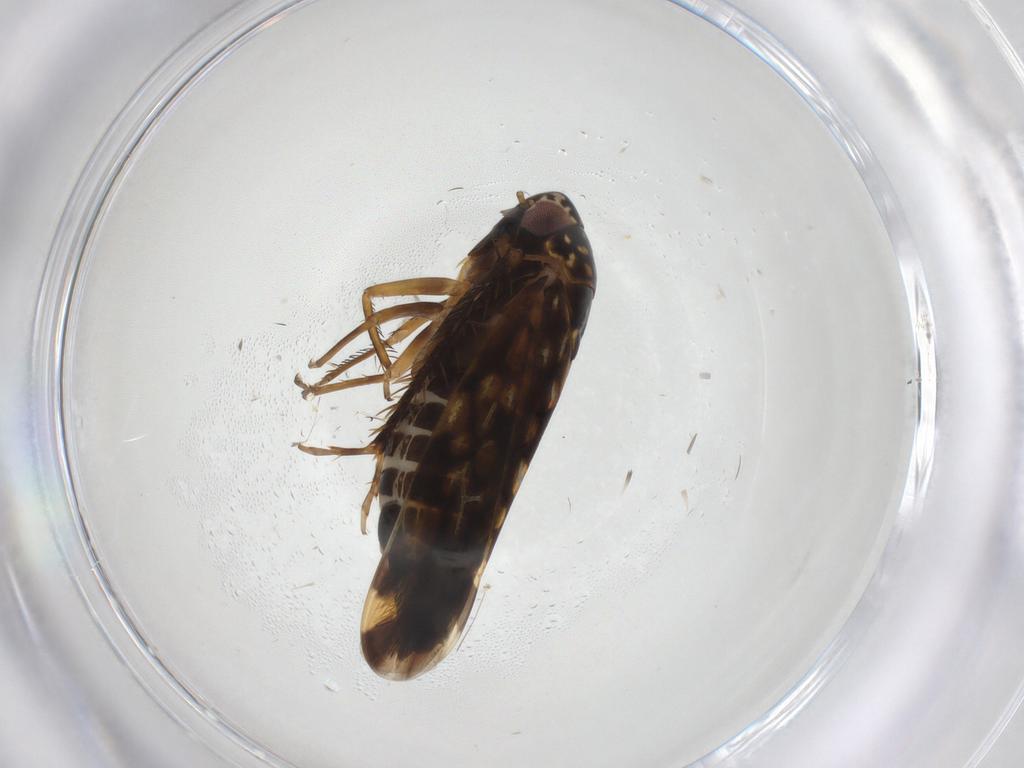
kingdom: Animalia
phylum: Arthropoda
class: Insecta
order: Hemiptera
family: Cicadellidae
